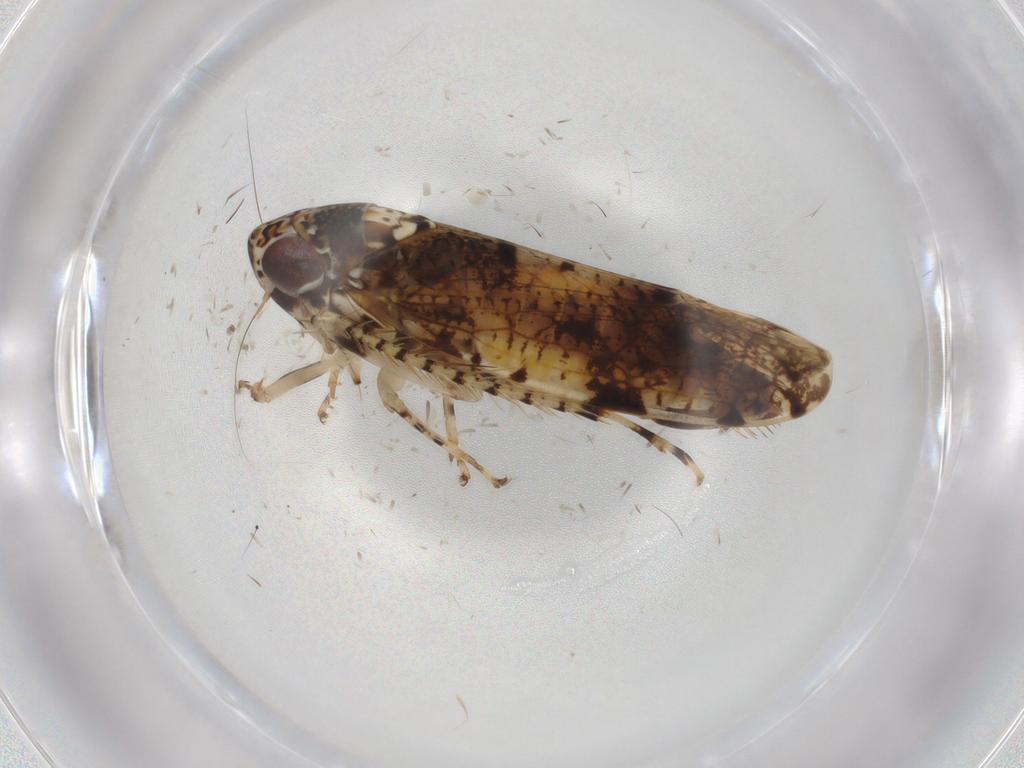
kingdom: Animalia
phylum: Arthropoda
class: Insecta
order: Hemiptera
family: Cicadellidae
